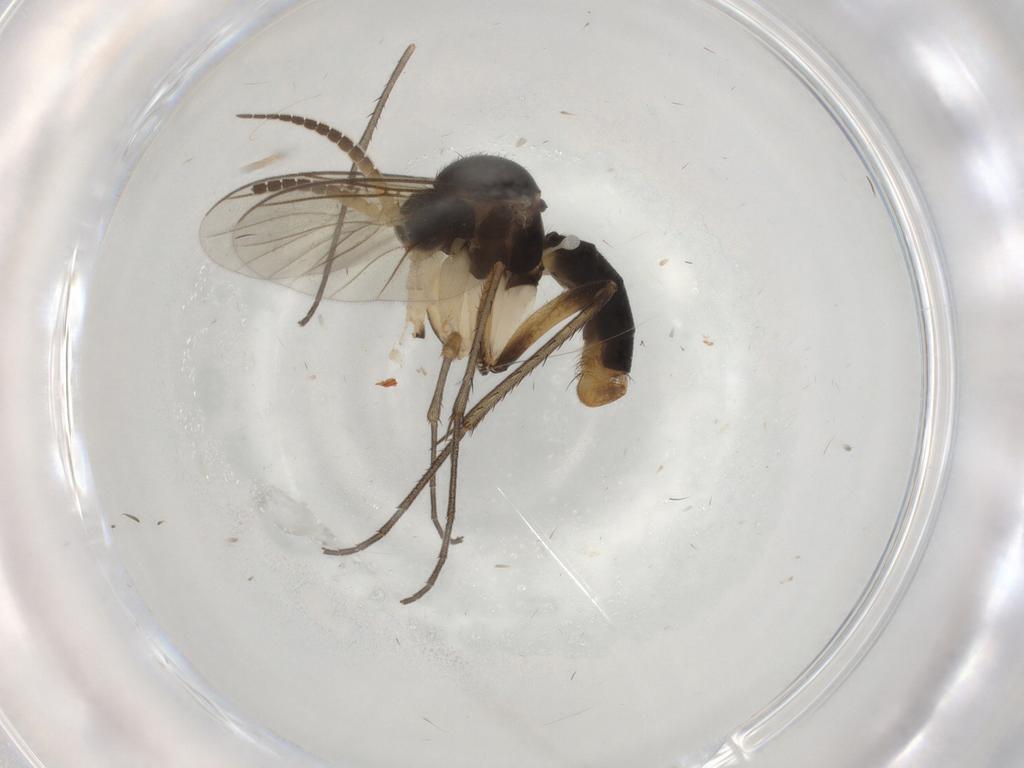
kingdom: Animalia
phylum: Arthropoda
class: Insecta
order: Diptera
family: Mycetophilidae
